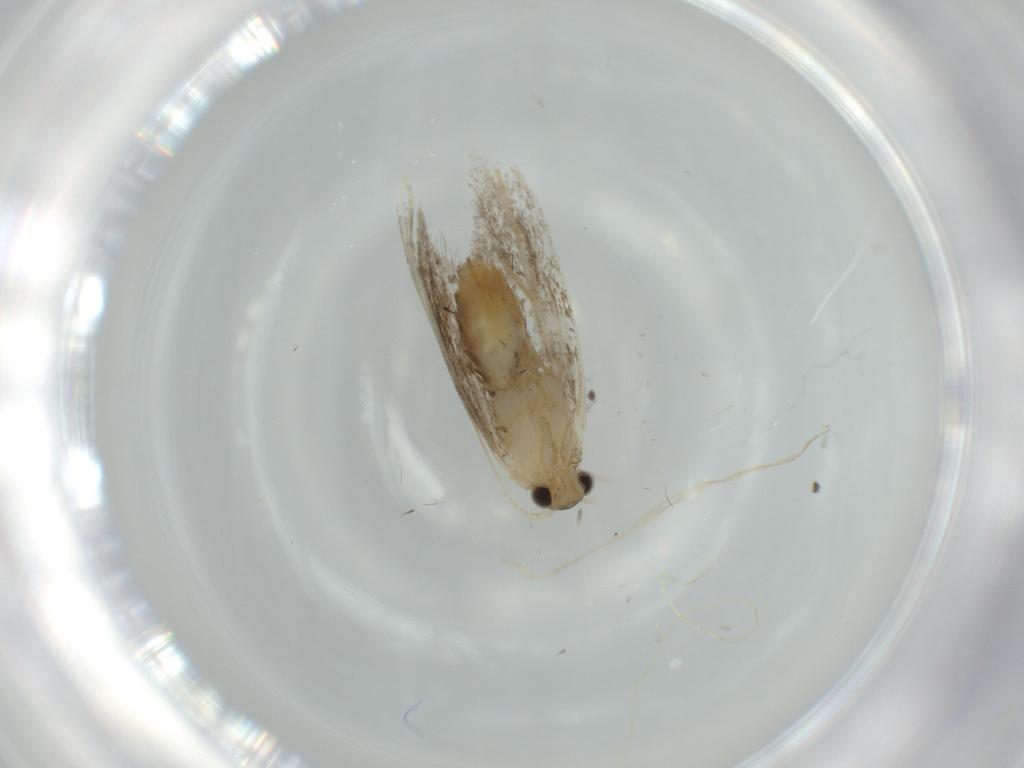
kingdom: Animalia
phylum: Arthropoda
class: Insecta
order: Lepidoptera
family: Tineidae
